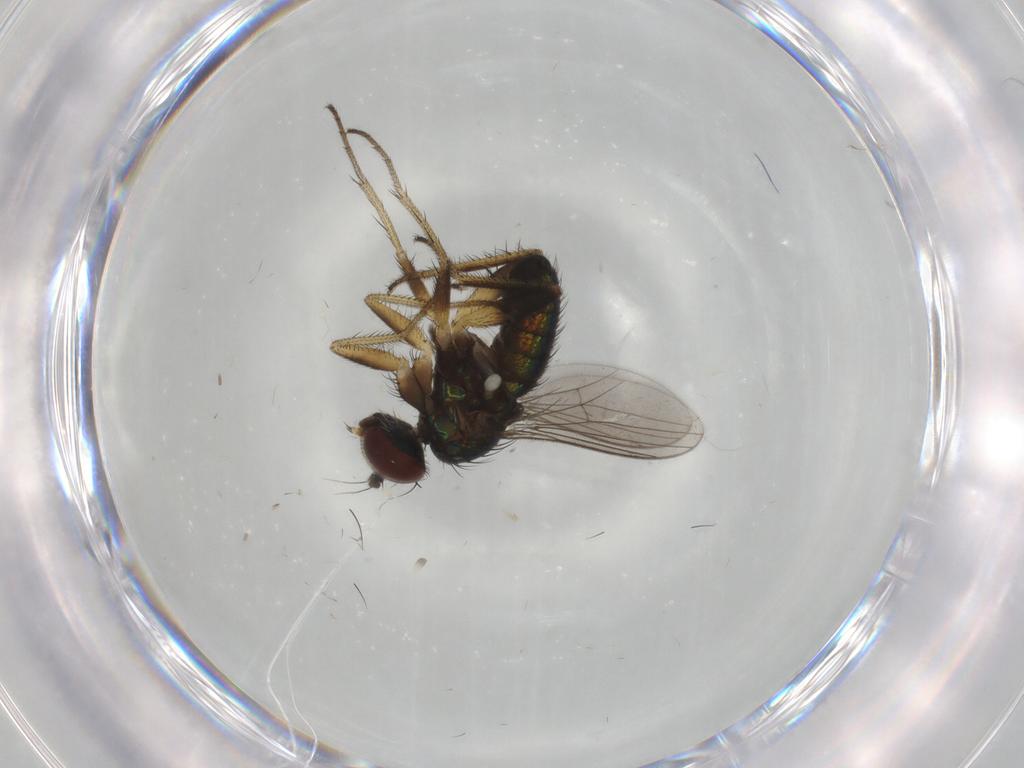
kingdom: Animalia
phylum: Arthropoda
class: Insecta
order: Diptera
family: Dolichopodidae
